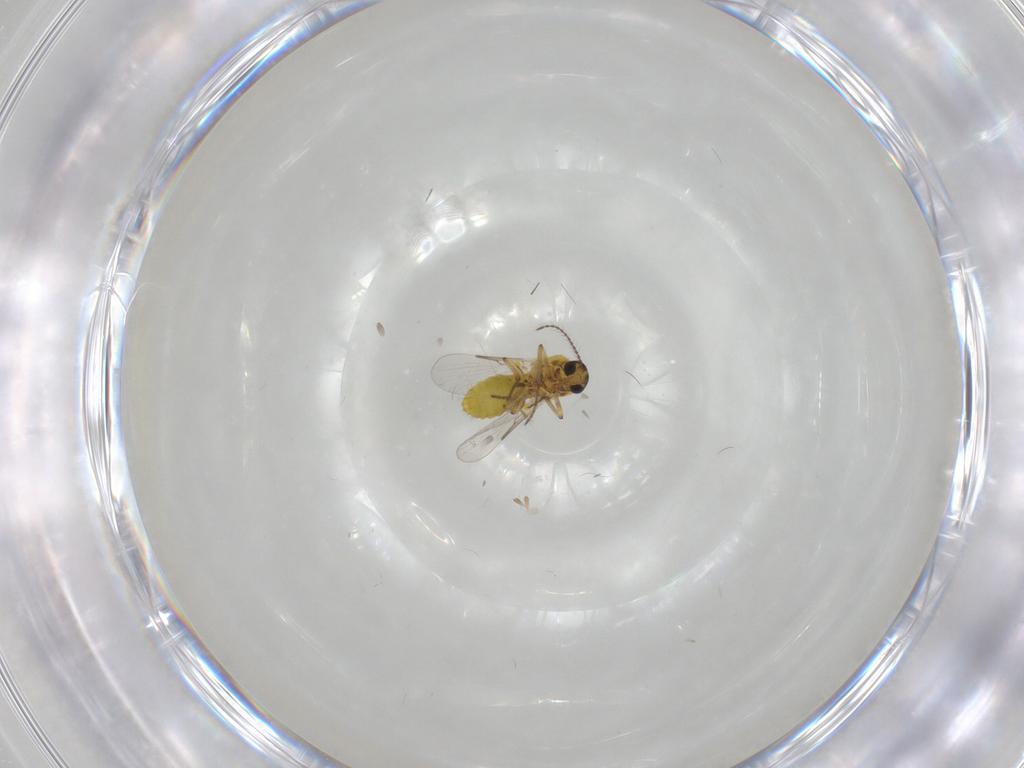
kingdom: Animalia
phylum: Arthropoda
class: Insecta
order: Diptera
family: Ceratopogonidae
